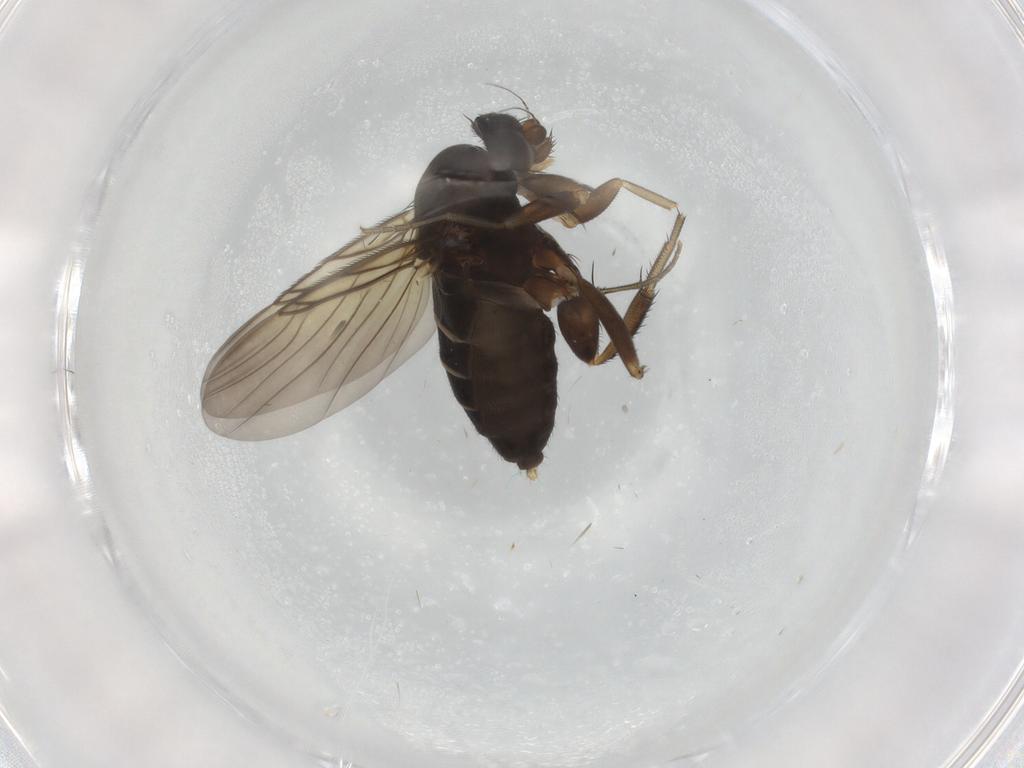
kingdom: Animalia
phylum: Arthropoda
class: Insecta
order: Diptera
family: Phoridae
